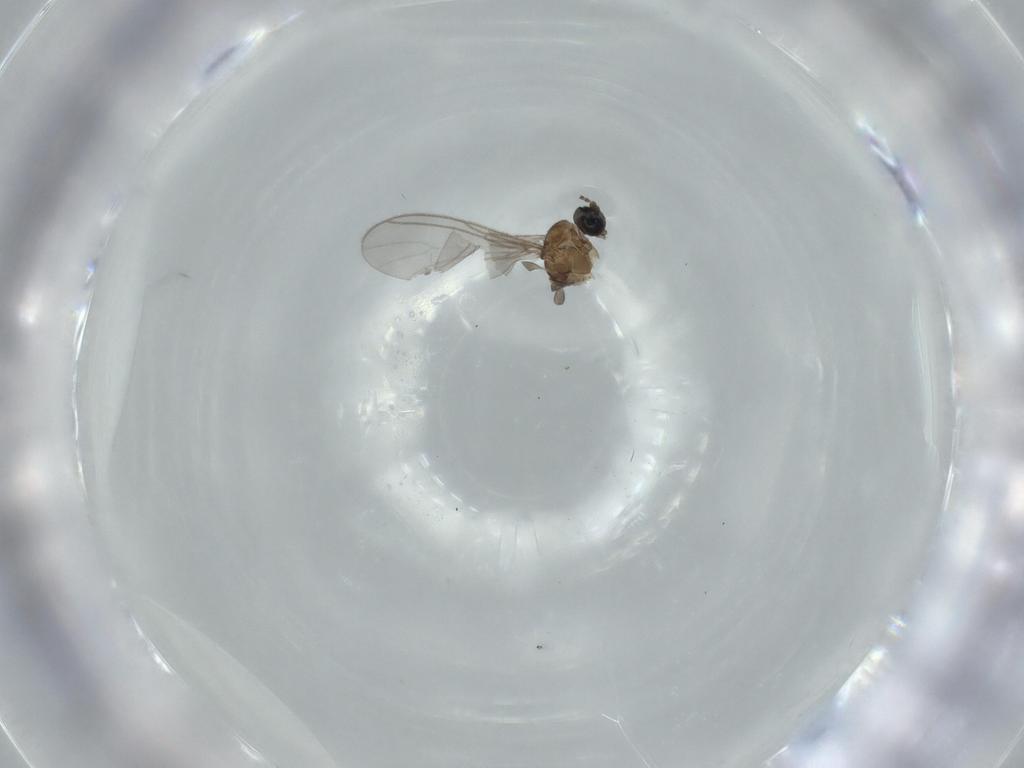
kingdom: Animalia
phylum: Arthropoda
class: Insecta
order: Diptera
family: Sciaridae
